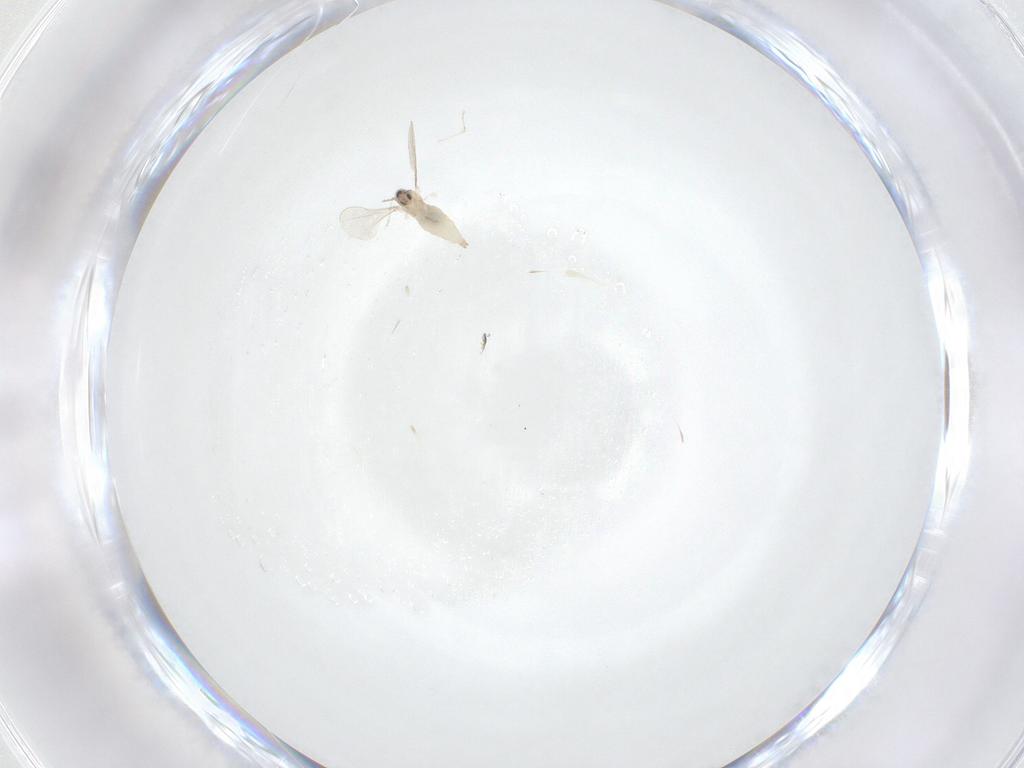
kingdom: Animalia
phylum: Arthropoda
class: Insecta
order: Diptera
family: Cecidomyiidae
